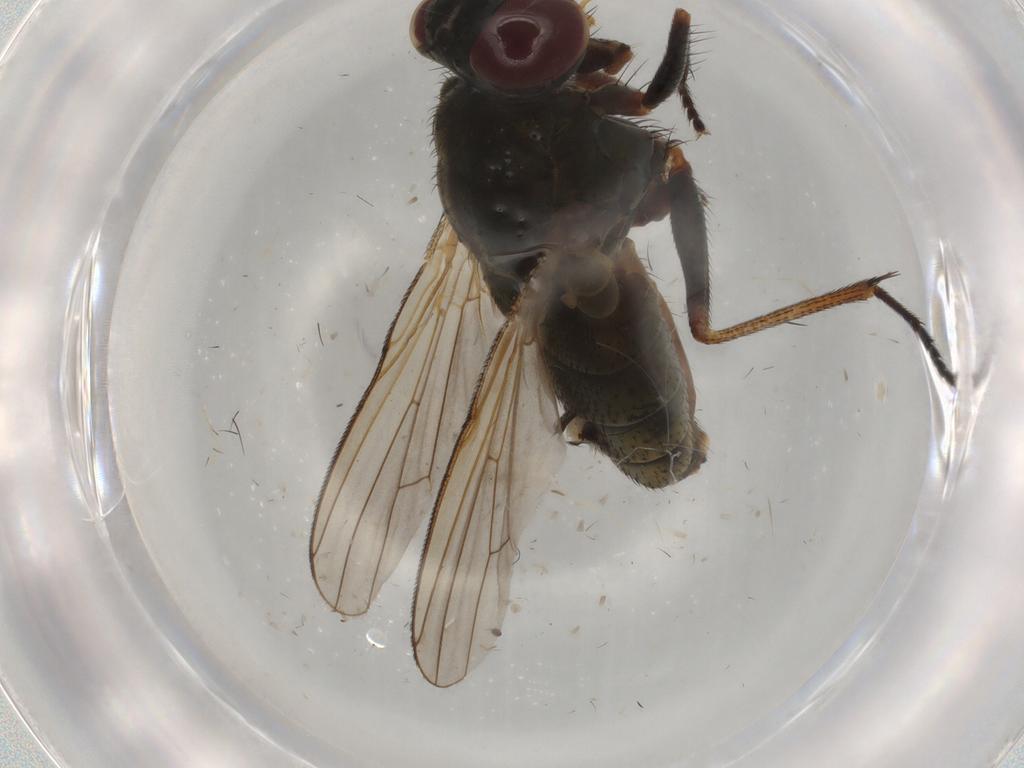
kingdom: Animalia
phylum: Arthropoda
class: Insecta
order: Diptera
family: Muscidae
